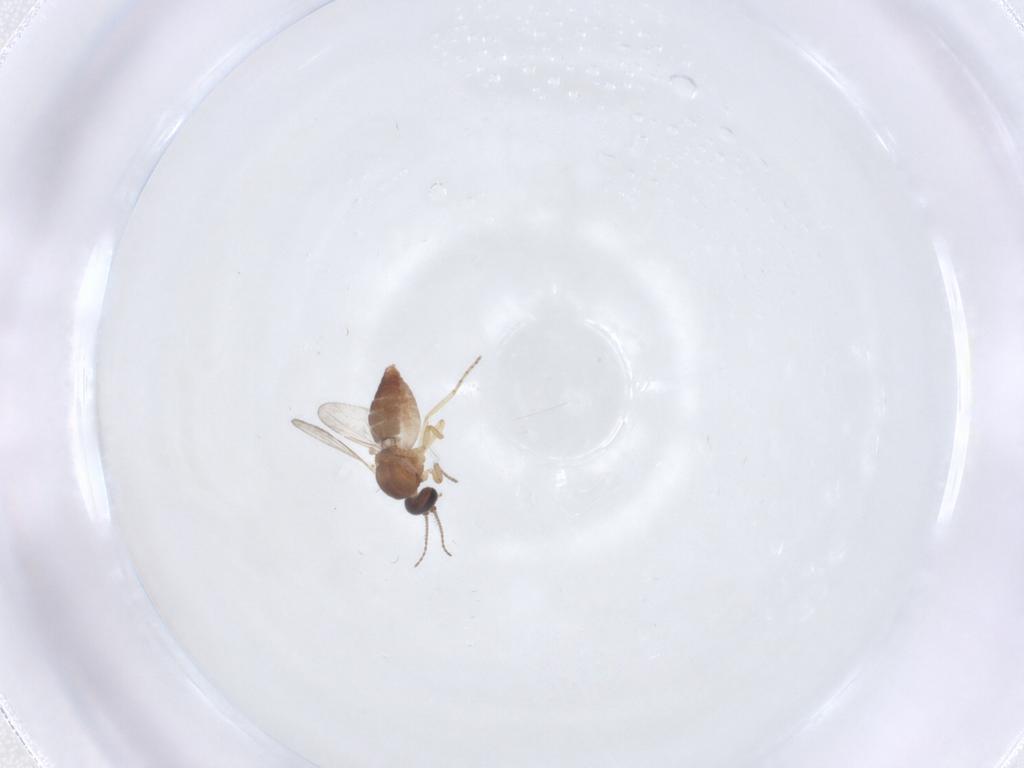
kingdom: Animalia
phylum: Arthropoda
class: Insecta
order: Diptera
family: Ceratopogonidae
